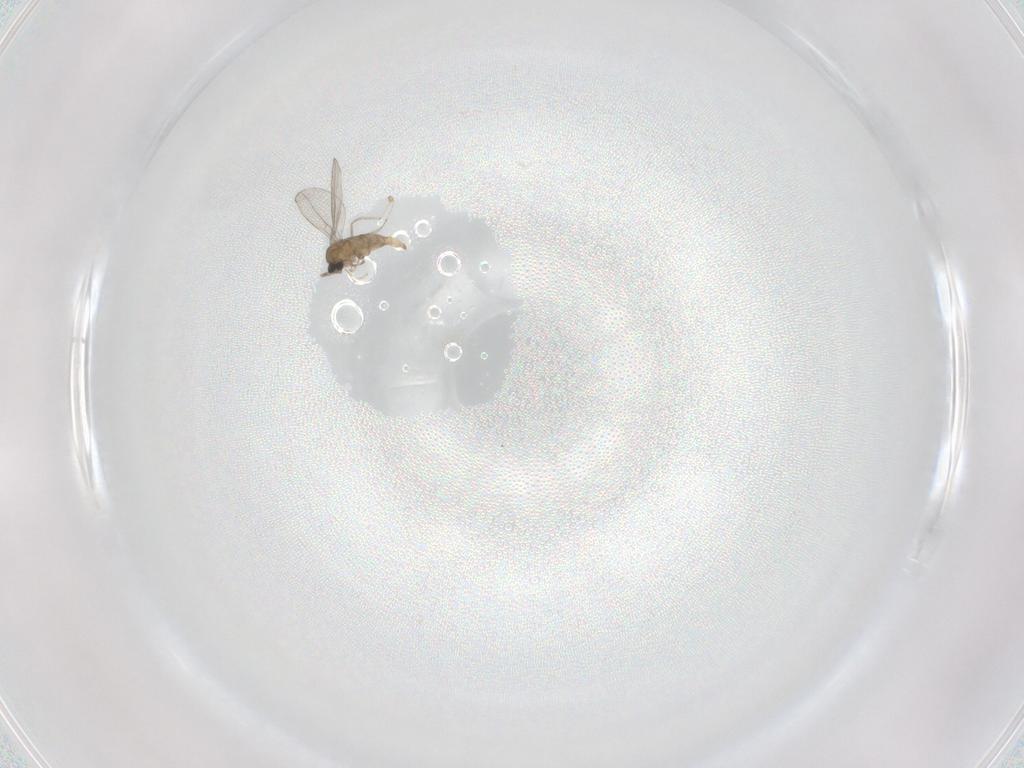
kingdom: Animalia
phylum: Arthropoda
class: Insecta
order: Diptera
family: Cecidomyiidae
